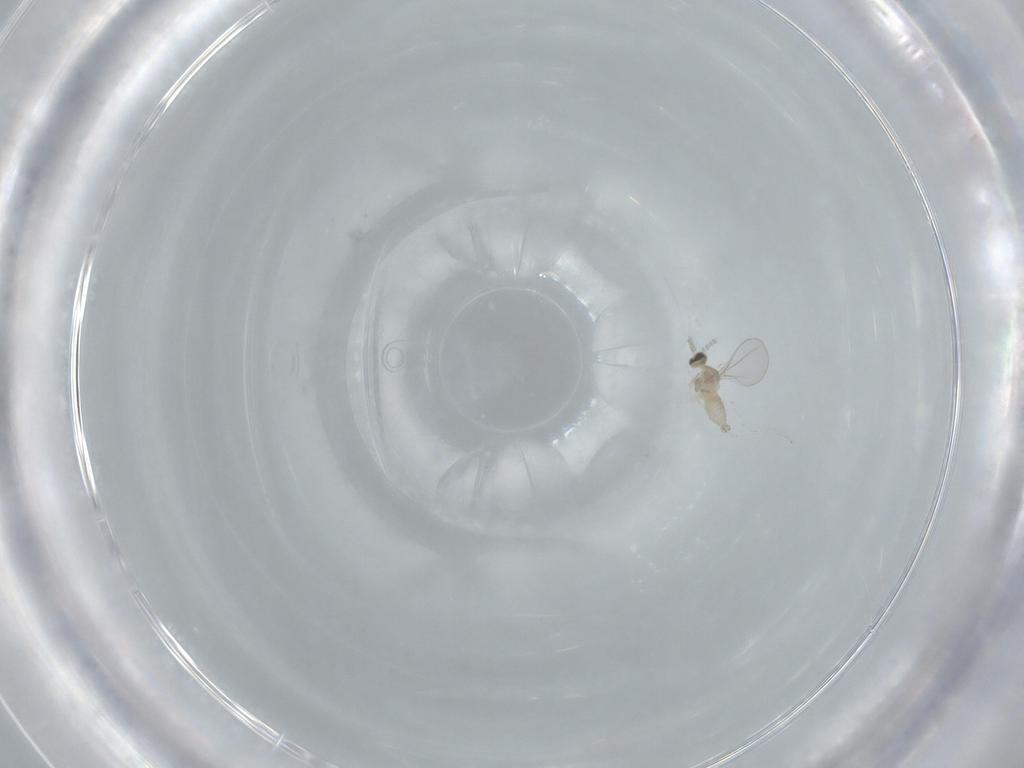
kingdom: Animalia
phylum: Arthropoda
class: Insecta
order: Diptera
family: Cecidomyiidae
